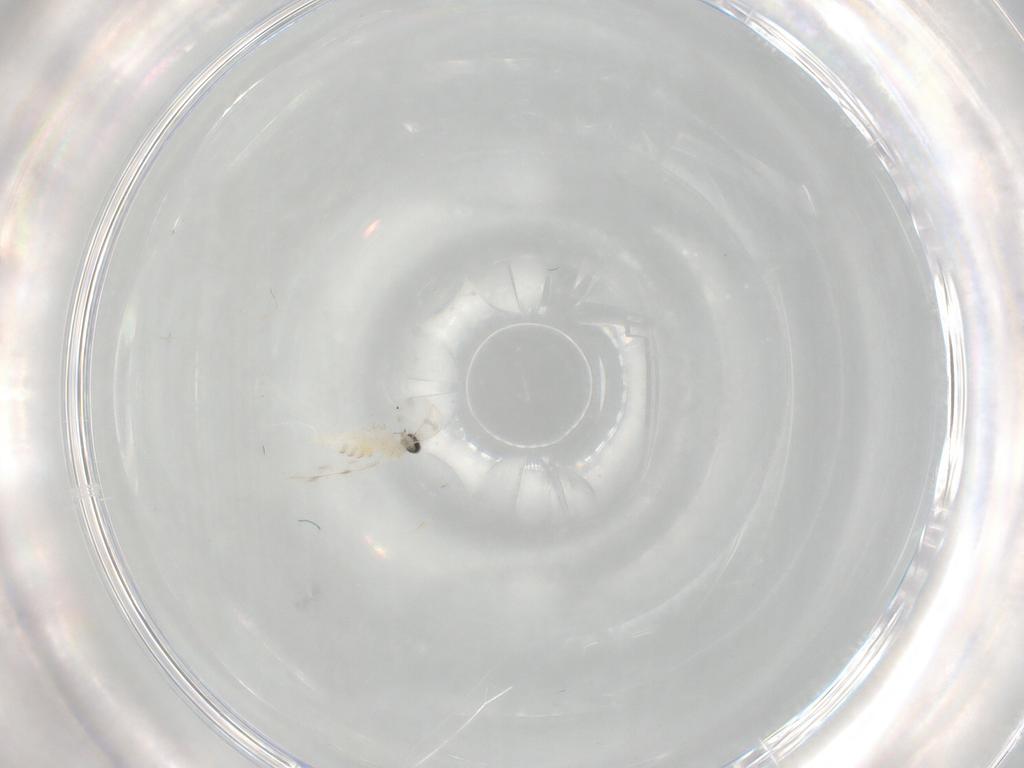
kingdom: Animalia
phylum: Arthropoda
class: Insecta
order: Diptera
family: Cecidomyiidae
